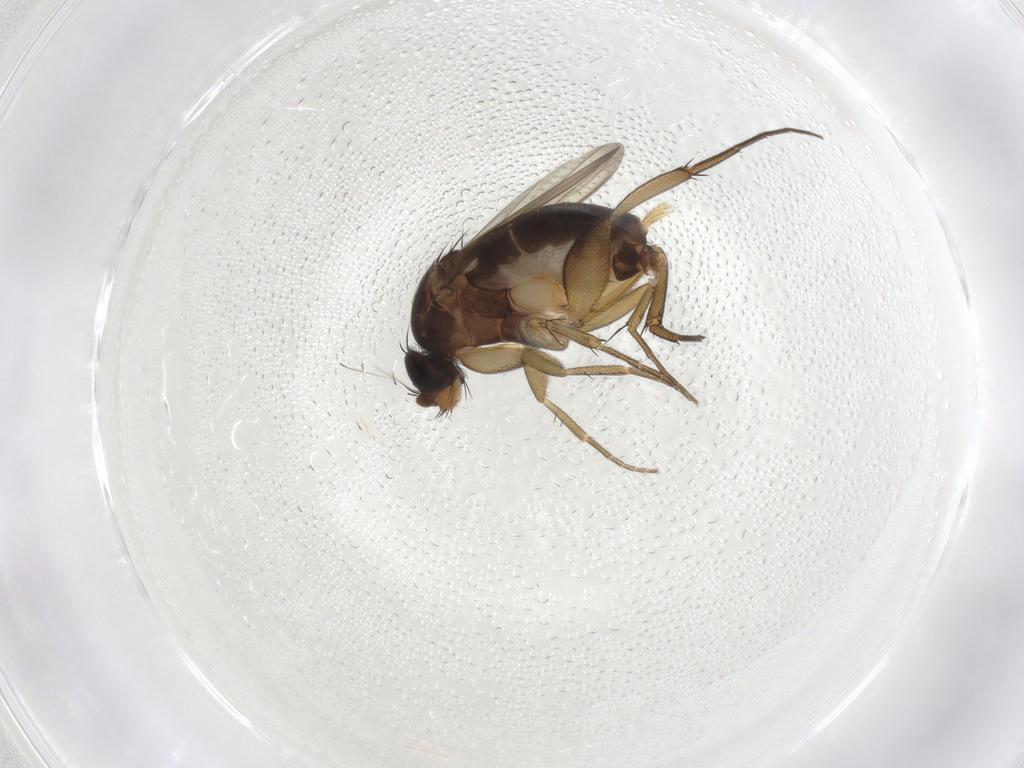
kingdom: Animalia
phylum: Arthropoda
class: Insecta
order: Diptera
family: Phoridae
